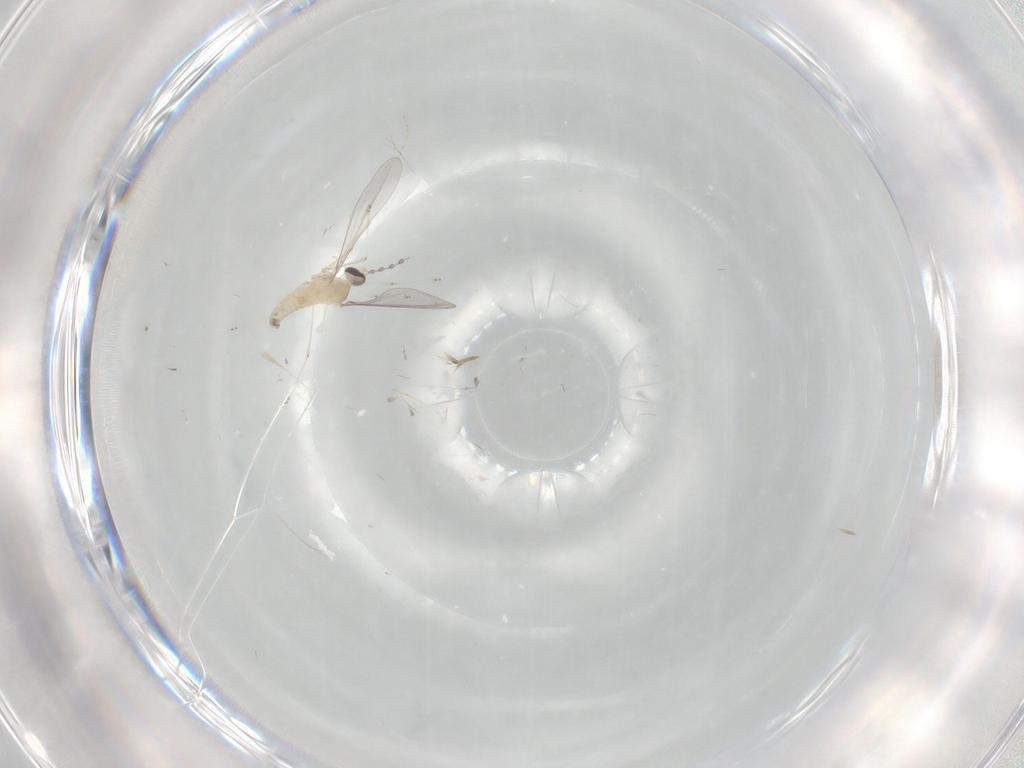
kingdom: Animalia
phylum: Arthropoda
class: Insecta
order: Diptera
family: Cecidomyiidae
